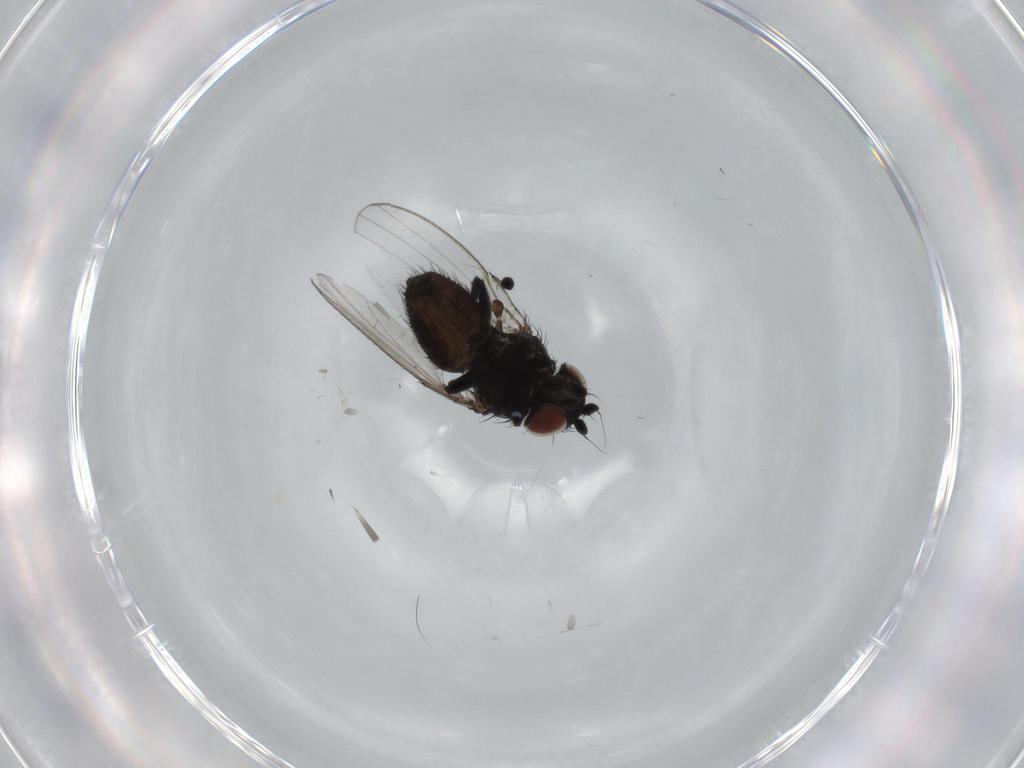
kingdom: Animalia
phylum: Arthropoda
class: Insecta
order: Diptera
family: Milichiidae
